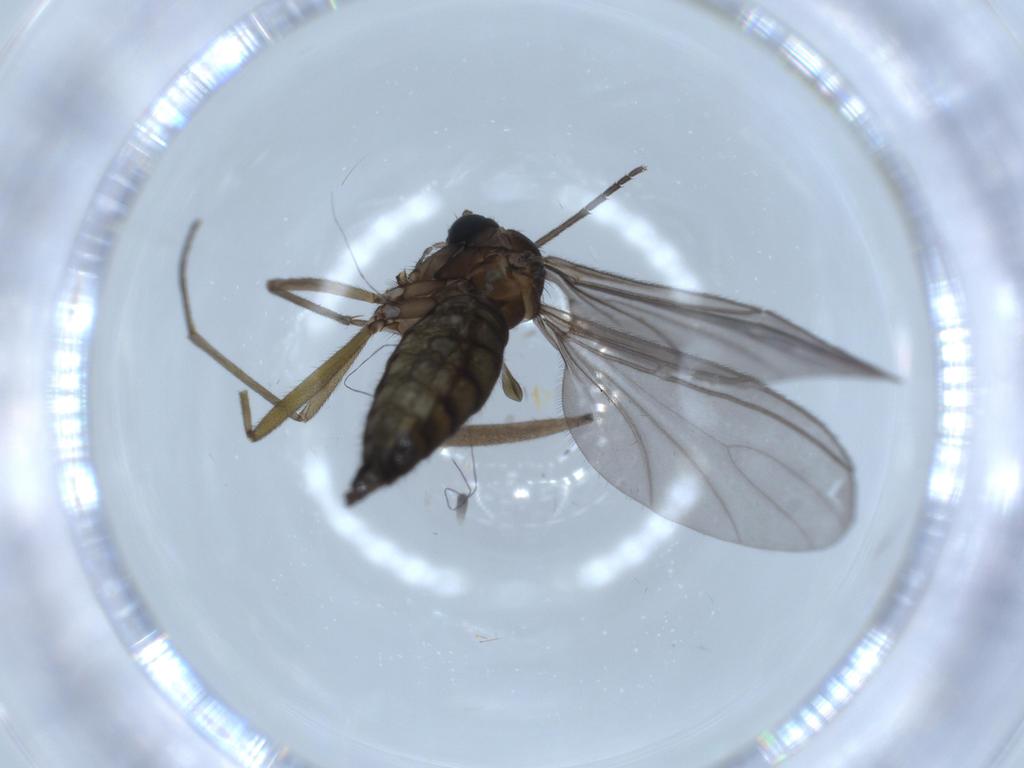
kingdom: Animalia
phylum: Arthropoda
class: Insecta
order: Diptera
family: Sciaridae
